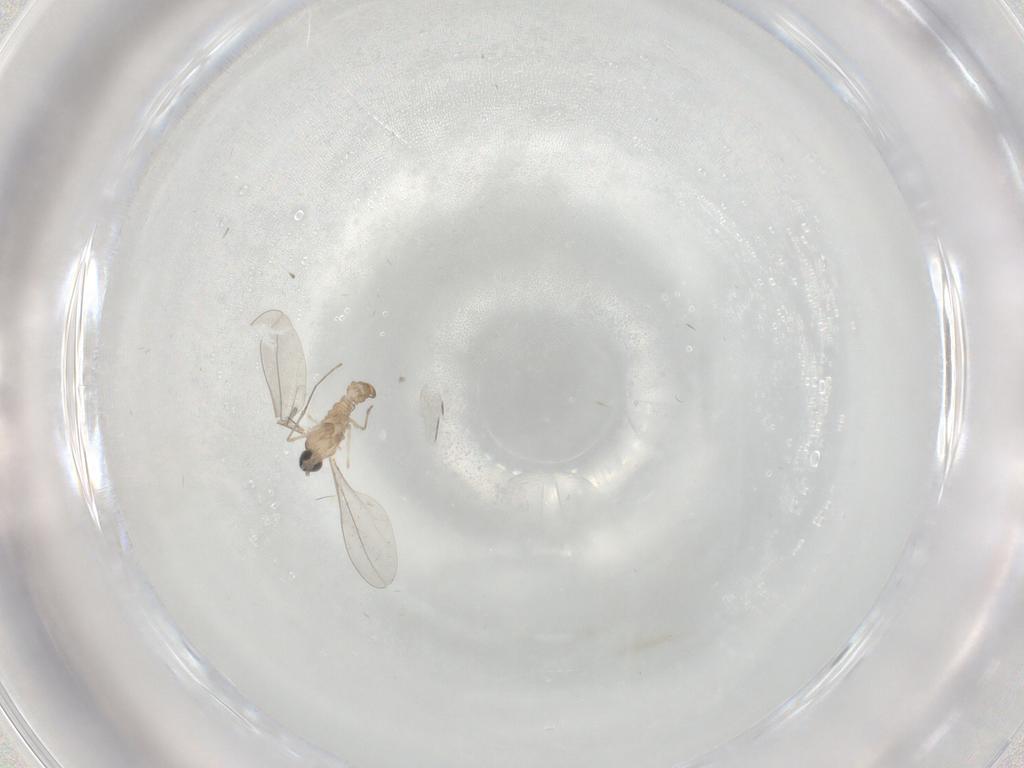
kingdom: Animalia
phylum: Arthropoda
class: Insecta
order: Diptera
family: Cecidomyiidae
